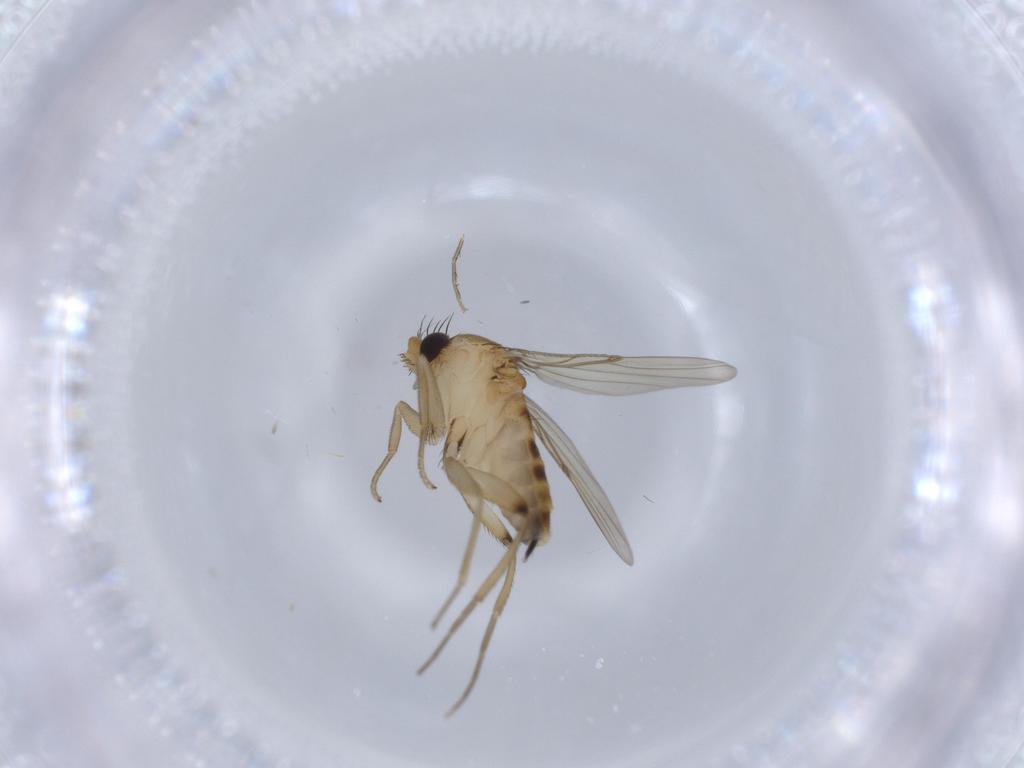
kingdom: Animalia
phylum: Arthropoda
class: Insecta
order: Diptera
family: Phoridae
